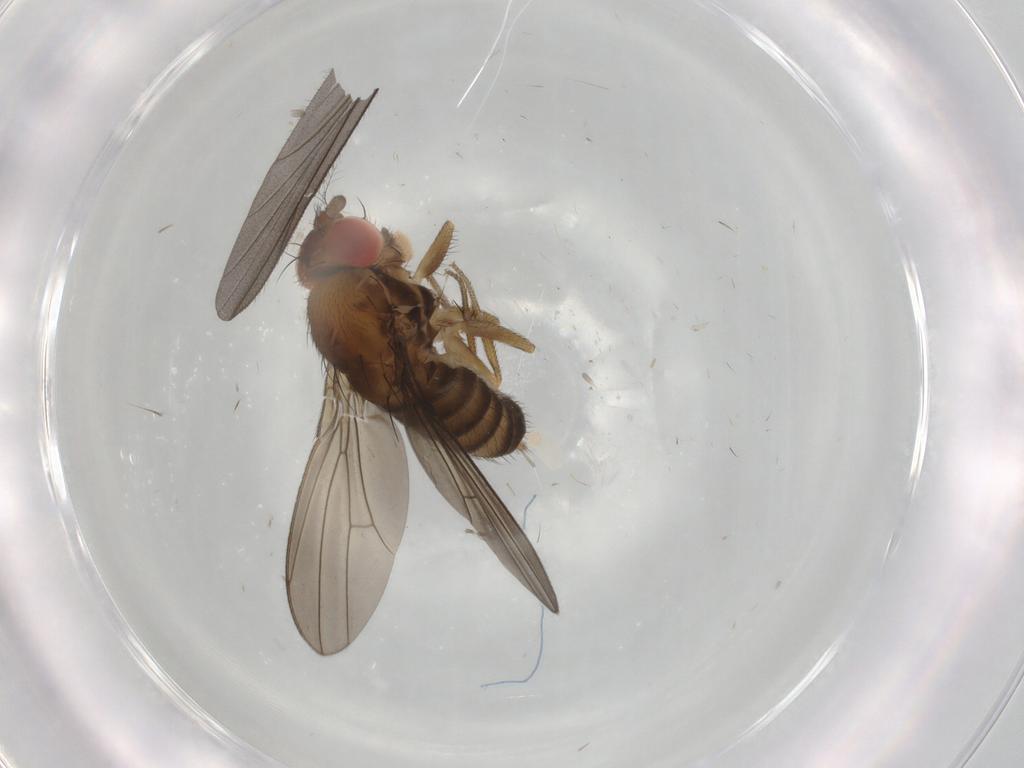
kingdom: Animalia
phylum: Arthropoda
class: Insecta
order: Diptera
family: Drosophilidae
